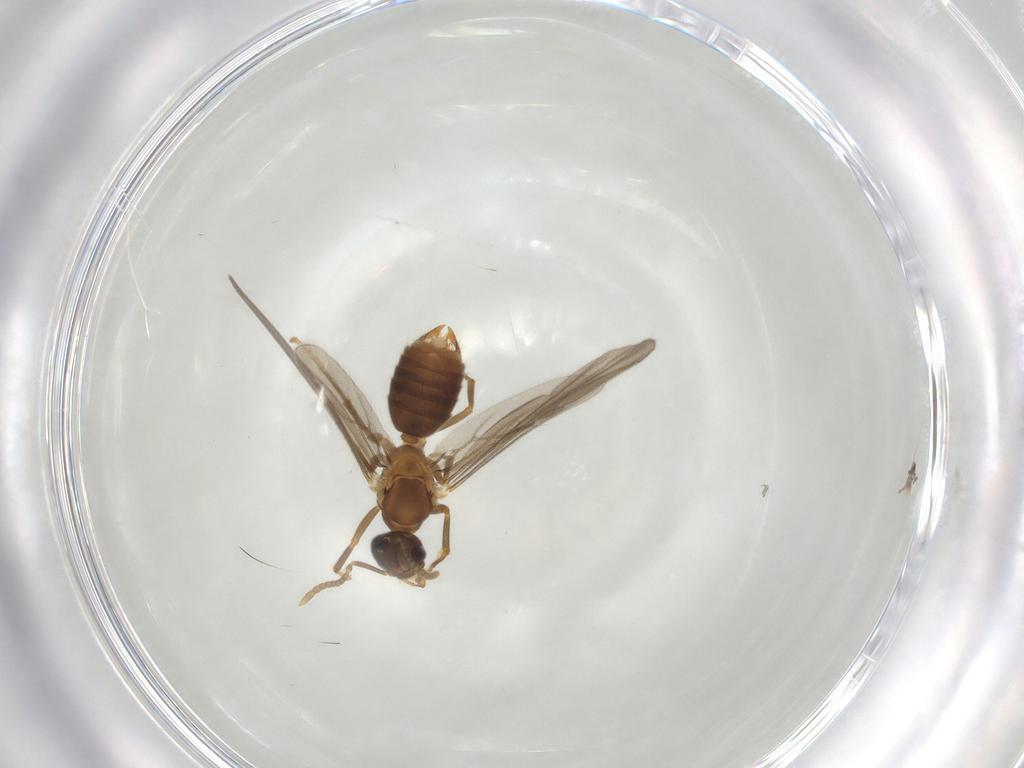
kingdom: Animalia
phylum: Arthropoda
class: Insecta
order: Hymenoptera
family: Formicidae
